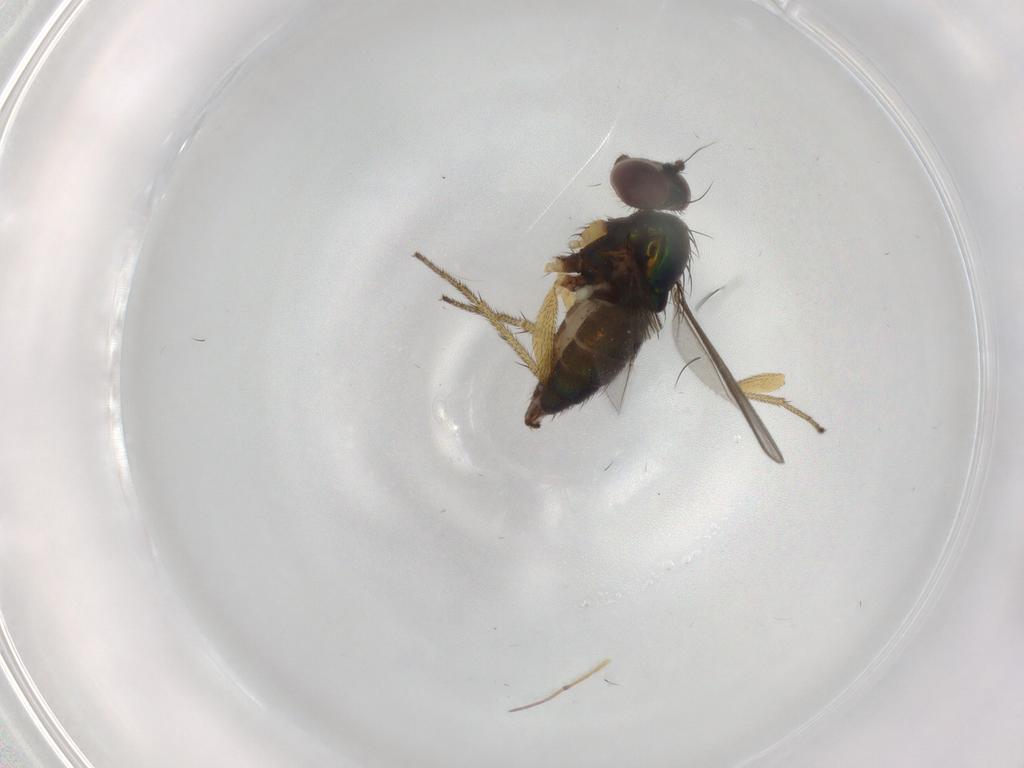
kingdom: Animalia
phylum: Arthropoda
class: Insecta
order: Diptera
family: Dolichopodidae
